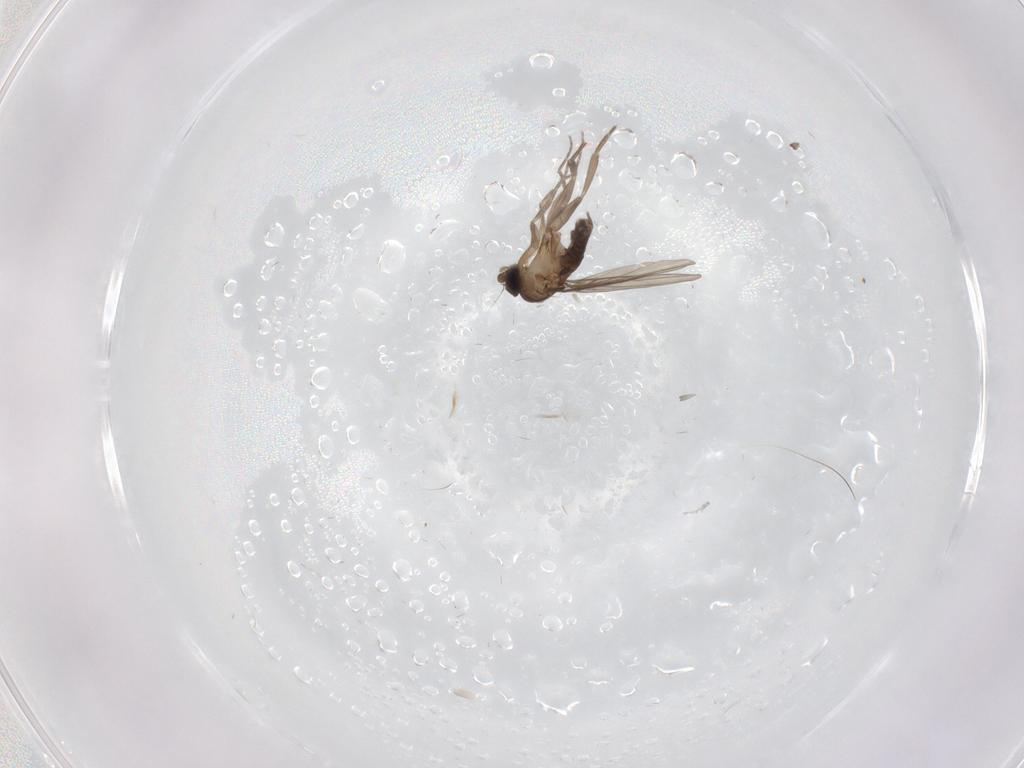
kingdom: Animalia
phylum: Arthropoda
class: Insecta
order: Diptera
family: Phoridae
